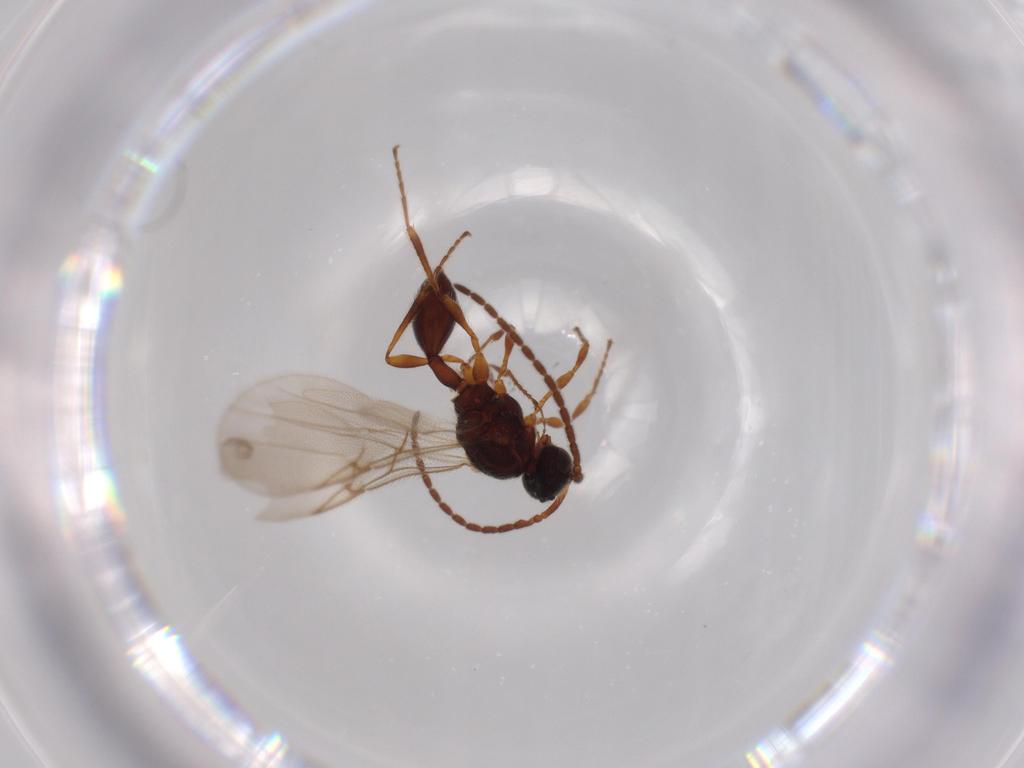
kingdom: Animalia
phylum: Arthropoda
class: Insecta
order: Hymenoptera
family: Diapriidae
